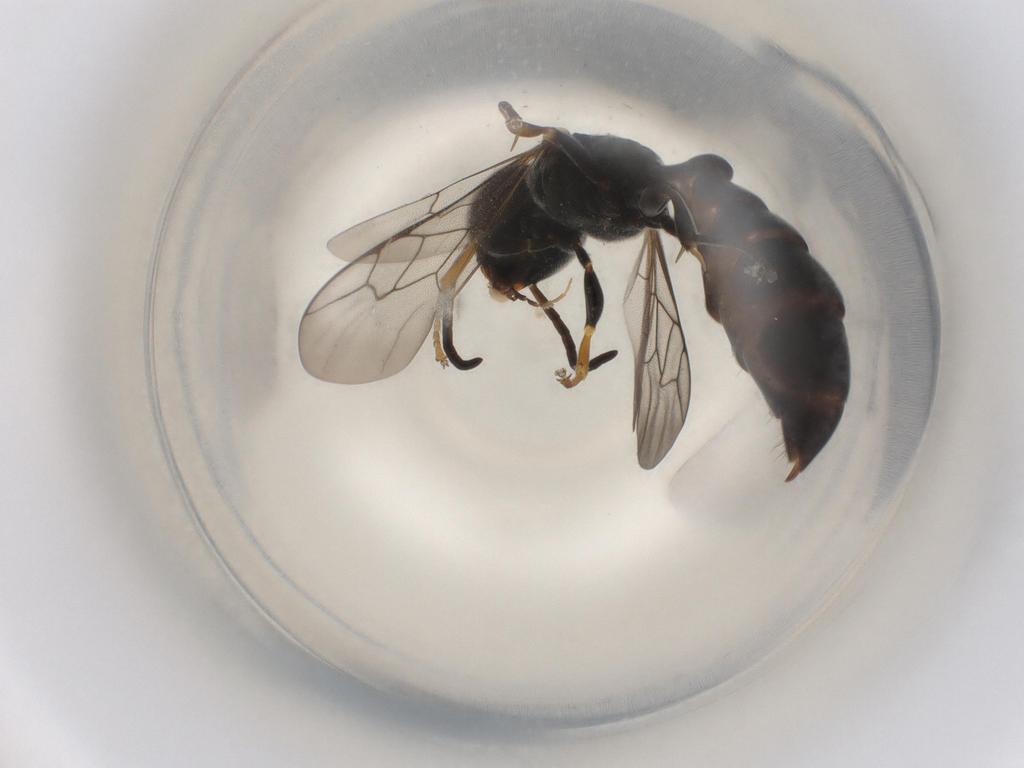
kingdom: Animalia
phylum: Arthropoda
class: Insecta
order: Hymenoptera
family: Crabronidae
